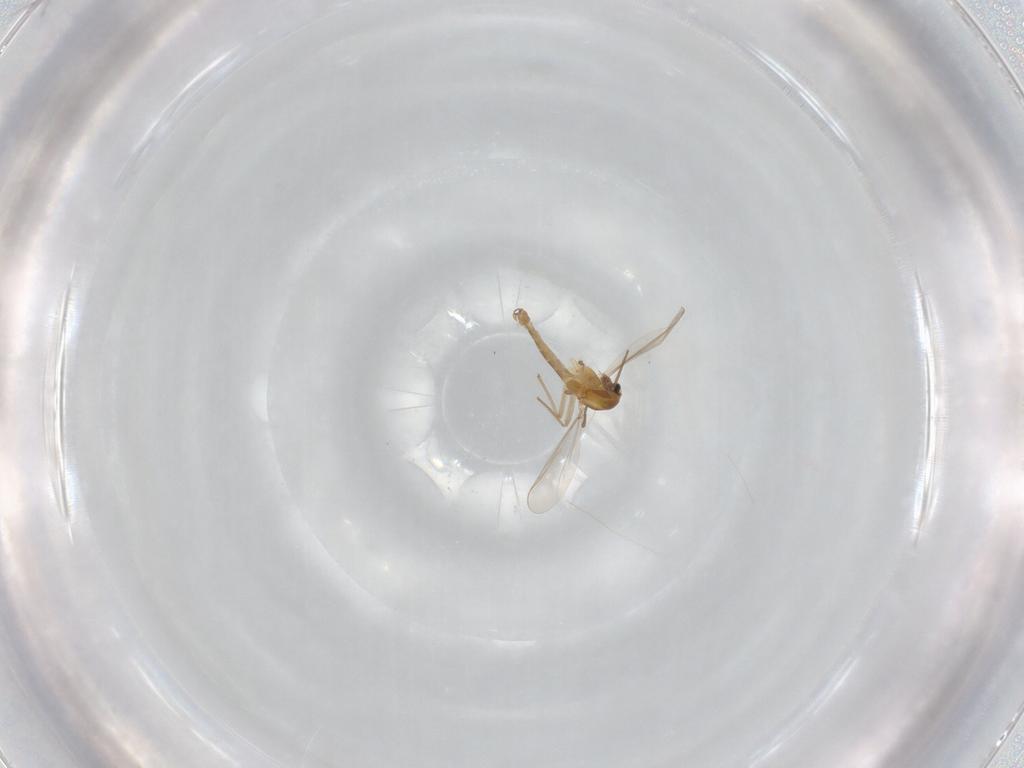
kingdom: Animalia
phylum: Arthropoda
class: Insecta
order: Diptera
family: Chironomidae
